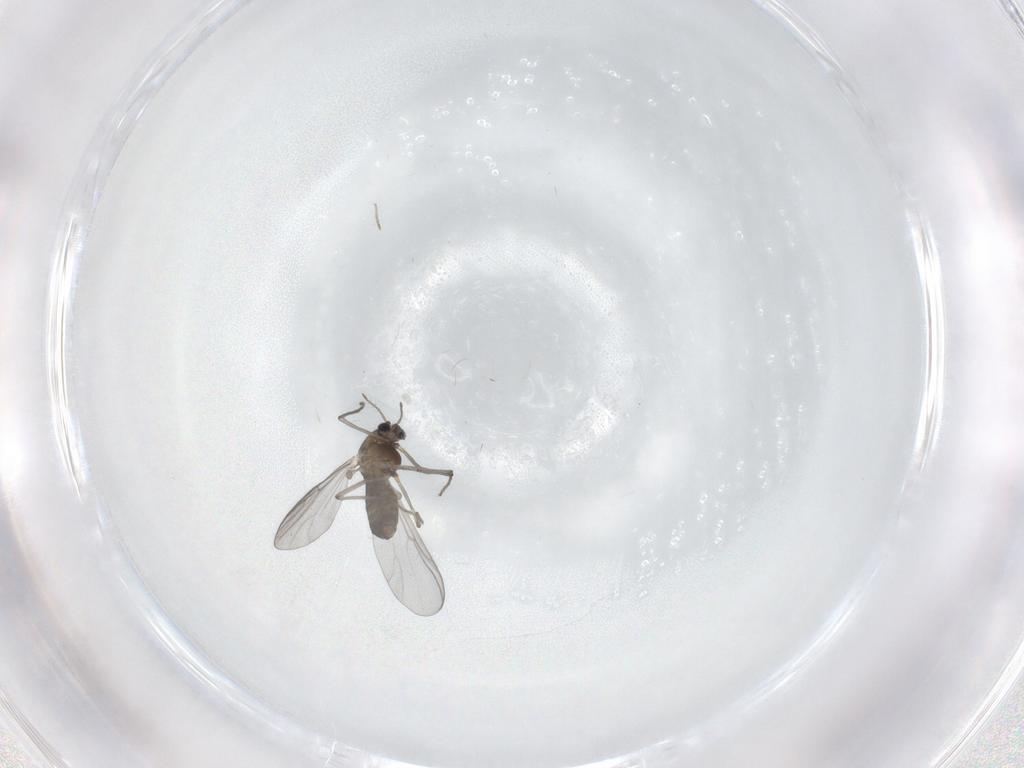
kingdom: Animalia
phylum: Arthropoda
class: Insecta
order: Diptera
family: Chironomidae
